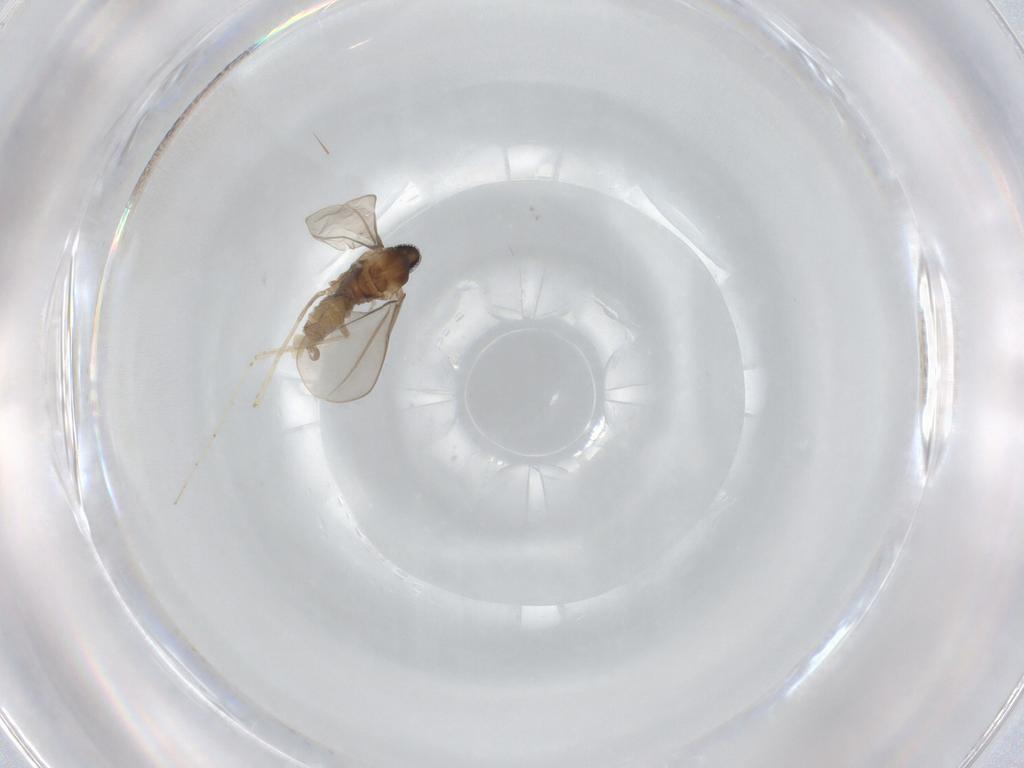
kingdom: Animalia
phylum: Arthropoda
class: Insecta
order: Diptera
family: Cecidomyiidae
